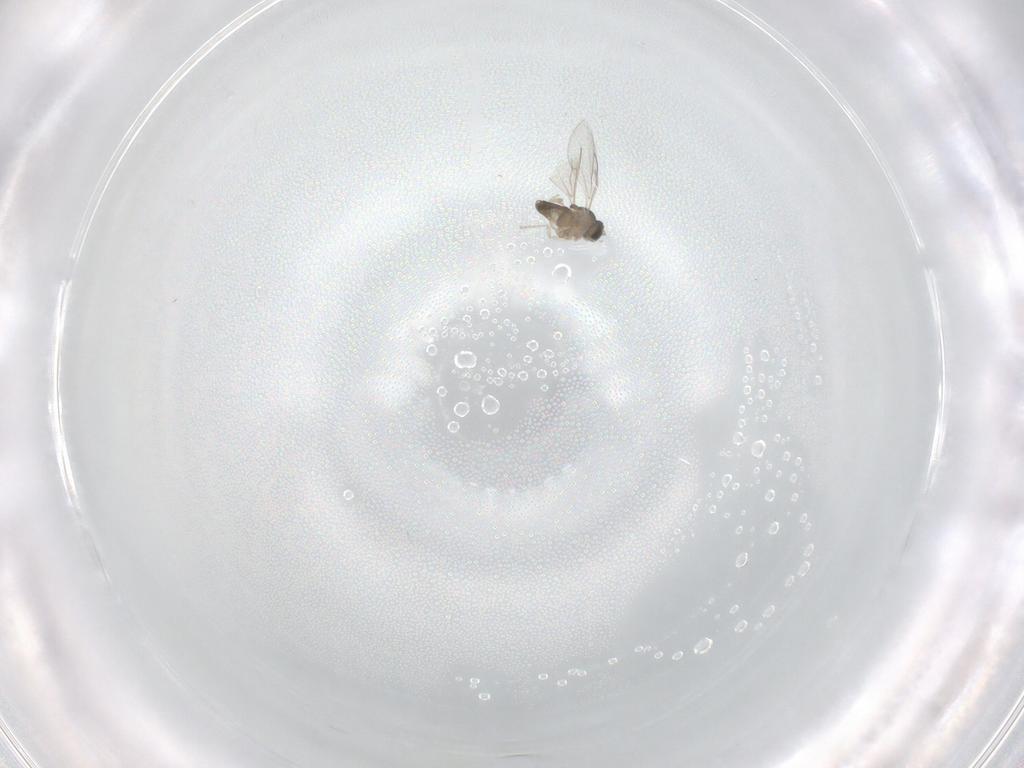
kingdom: Animalia
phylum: Arthropoda
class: Insecta
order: Diptera
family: Cecidomyiidae
